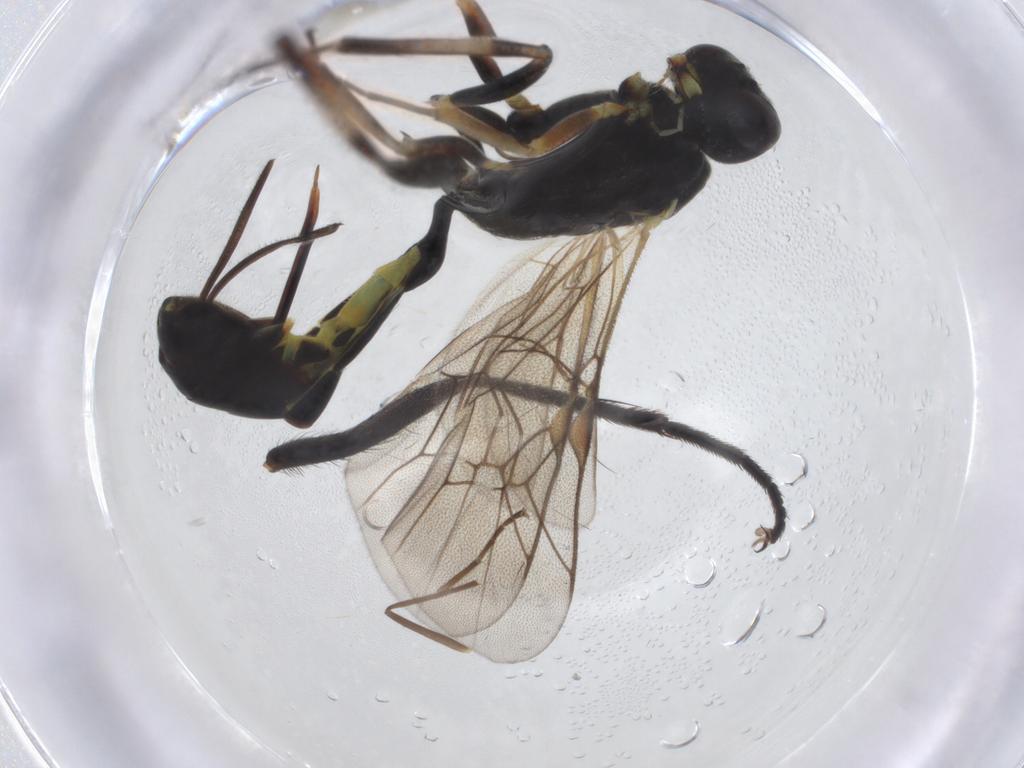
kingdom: Animalia
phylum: Arthropoda
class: Insecta
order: Hymenoptera
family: Ichneumonidae
